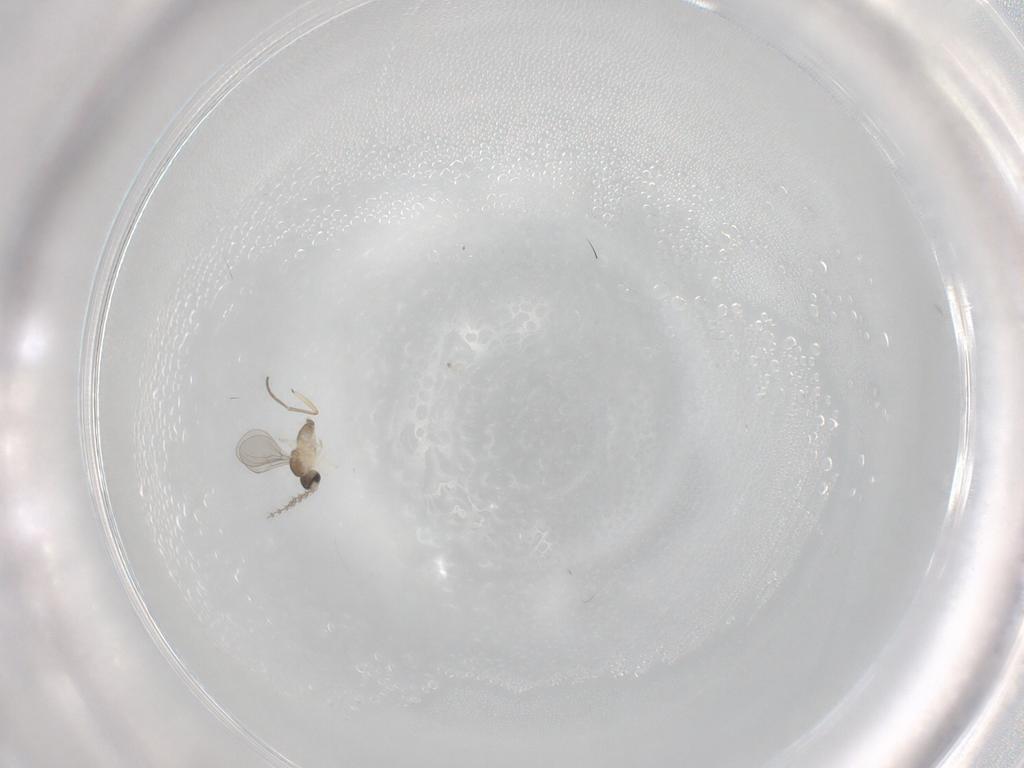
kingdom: Animalia
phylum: Arthropoda
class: Insecta
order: Diptera
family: Cecidomyiidae
